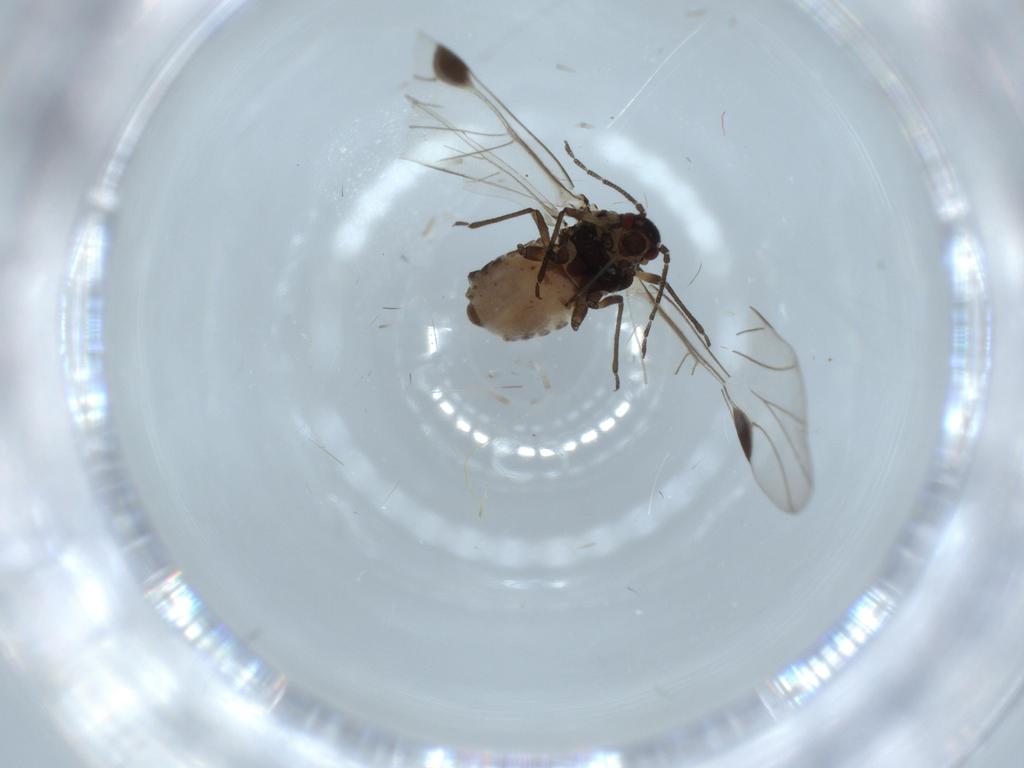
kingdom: Animalia
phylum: Arthropoda
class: Insecta
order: Hemiptera
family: Aphididae
